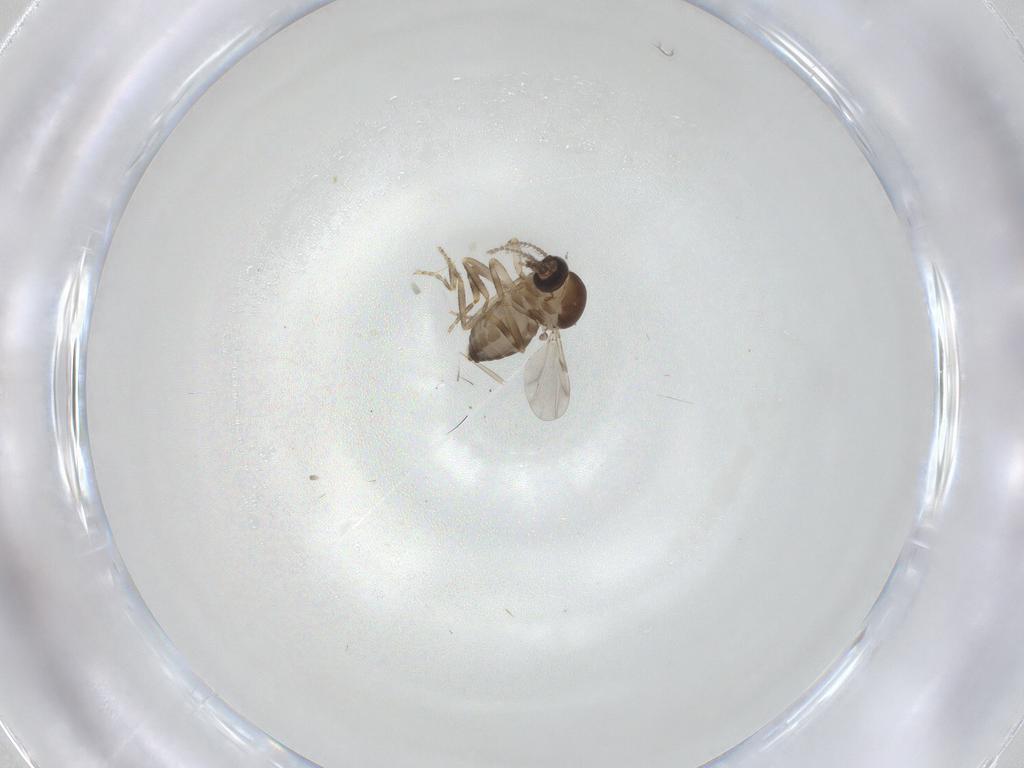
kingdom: Animalia
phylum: Arthropoda
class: Insecta
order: Diptera
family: Ceratopogonidae
